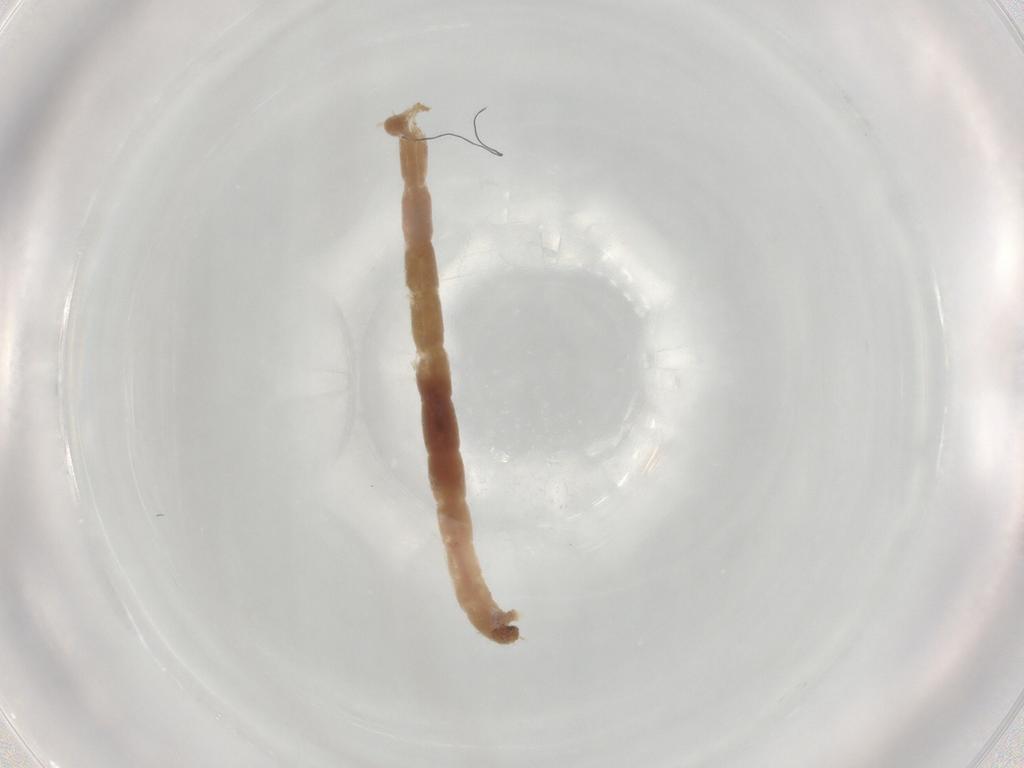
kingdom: Animalia
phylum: Arthropoda
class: Insecta
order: Diptera
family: Chironomidae
